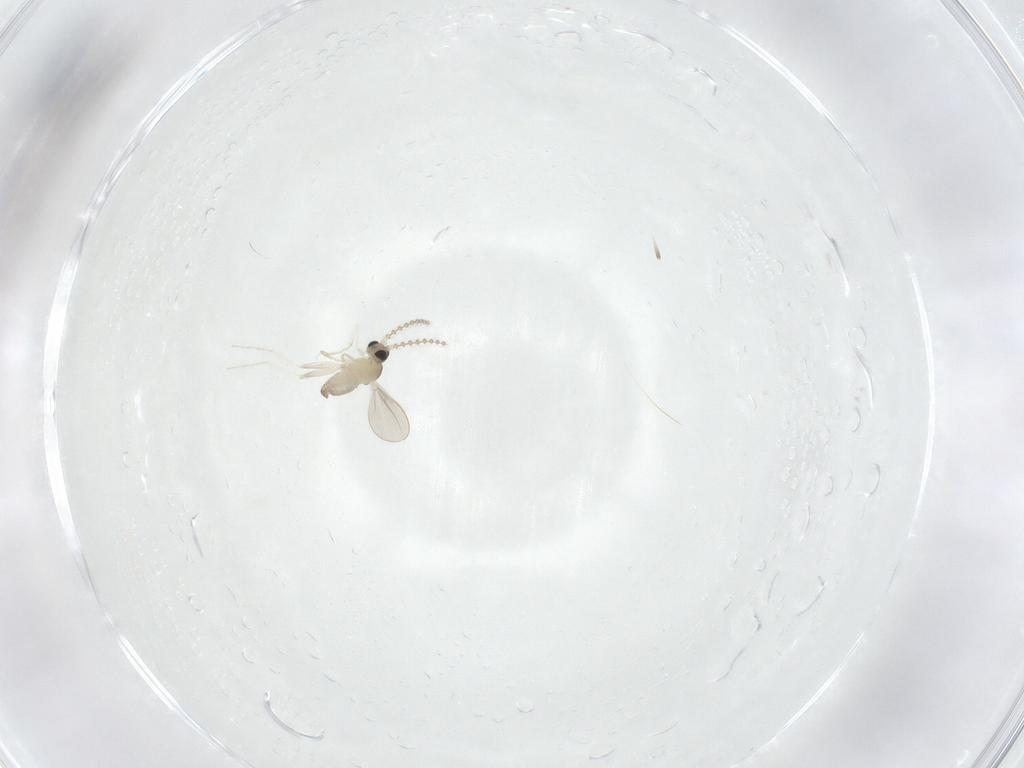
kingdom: Animalia
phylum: Arthropoda
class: Insecta
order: Diptera
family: Cecidomyiidae
